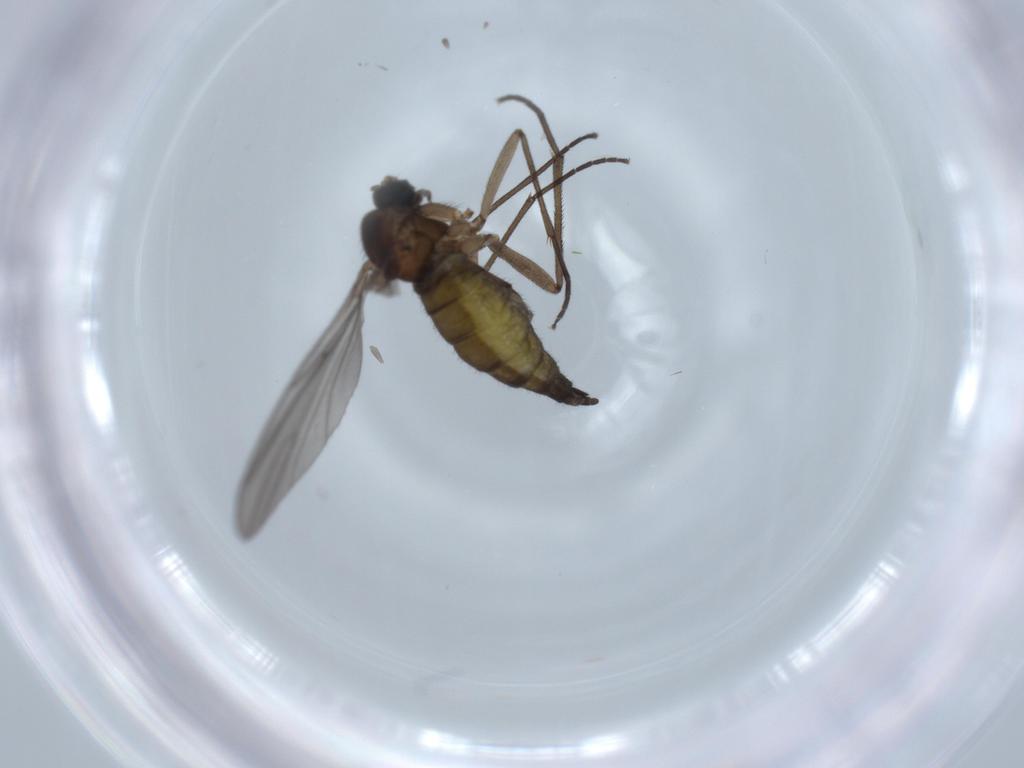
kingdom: Animalia
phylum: Arthropoda
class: Insecta
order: Diptera
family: Sciaridae
